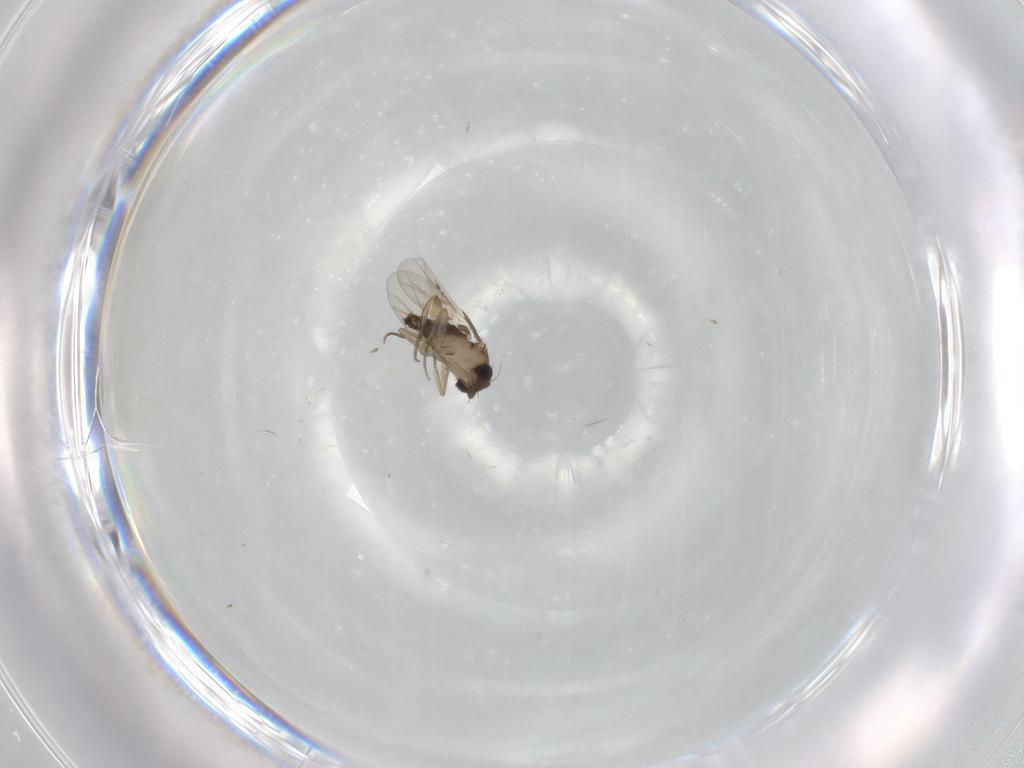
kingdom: Animalia
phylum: Arthropoda
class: Insecta
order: Diptera
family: Phoridae
